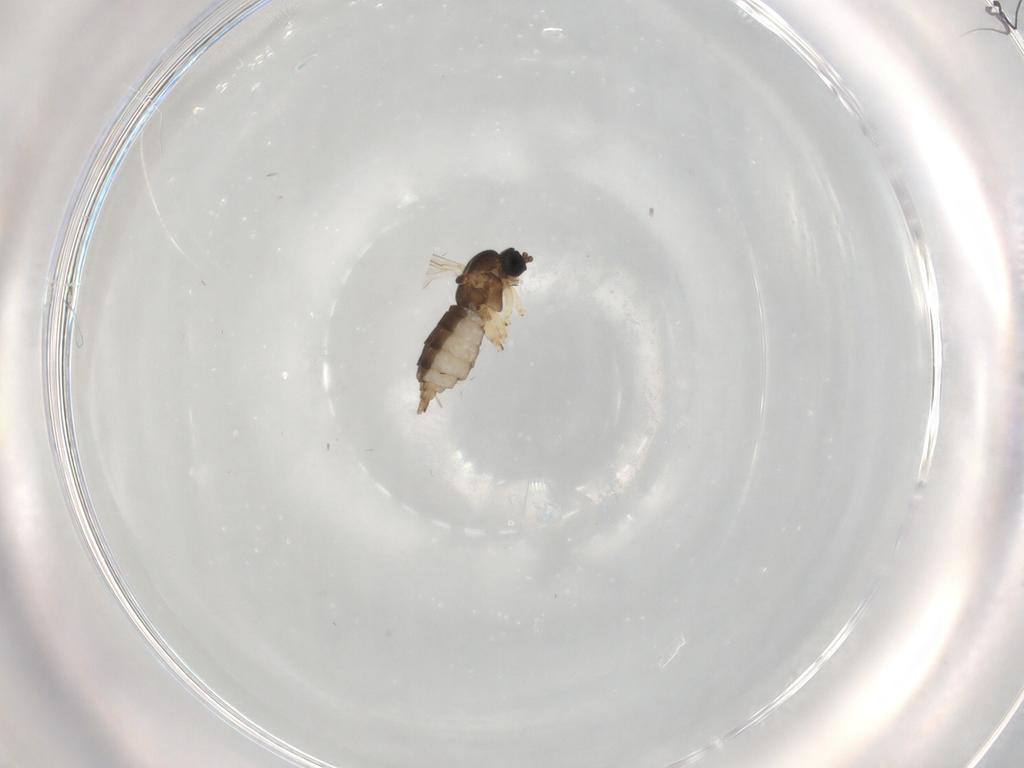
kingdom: Animalia
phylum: Arthropoda
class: Insecta
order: Diptera
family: Sciaridae
